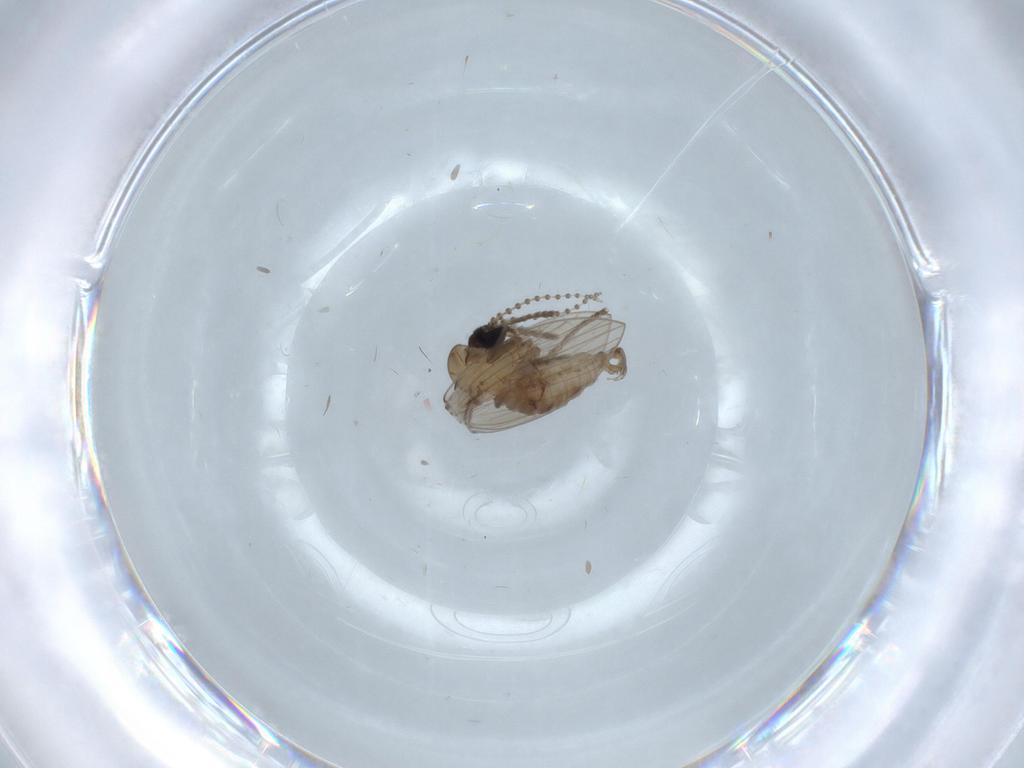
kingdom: Animalia
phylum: Arthropoda
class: Insecta
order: Diptera
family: Psychodidae
